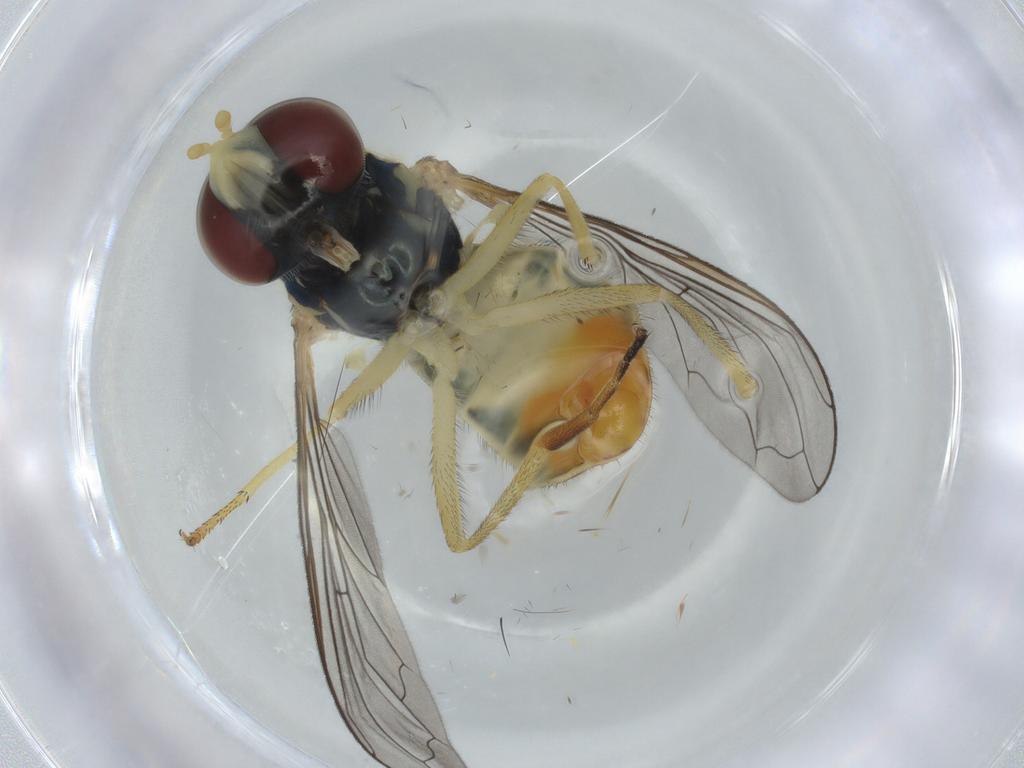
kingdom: Animalia
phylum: Arthropoda
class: Insecta
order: Diptera
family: Syrphidae
